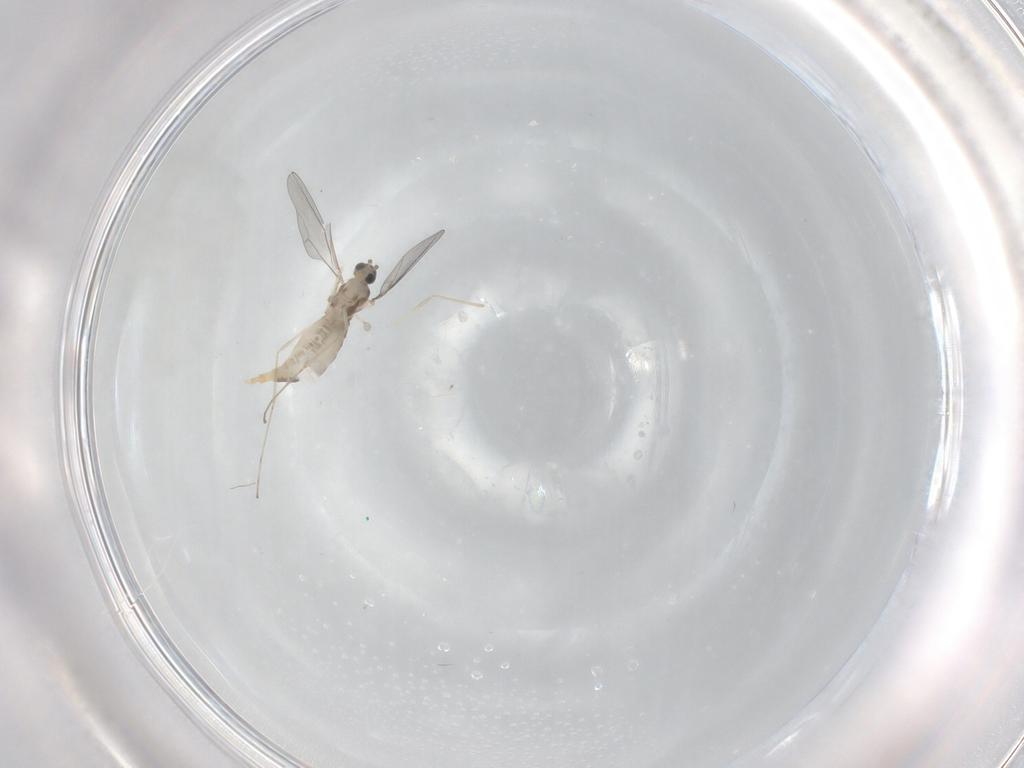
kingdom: Animalia
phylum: Arthropoda
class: Insecta
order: Diptera
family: Cecidomyiidae
